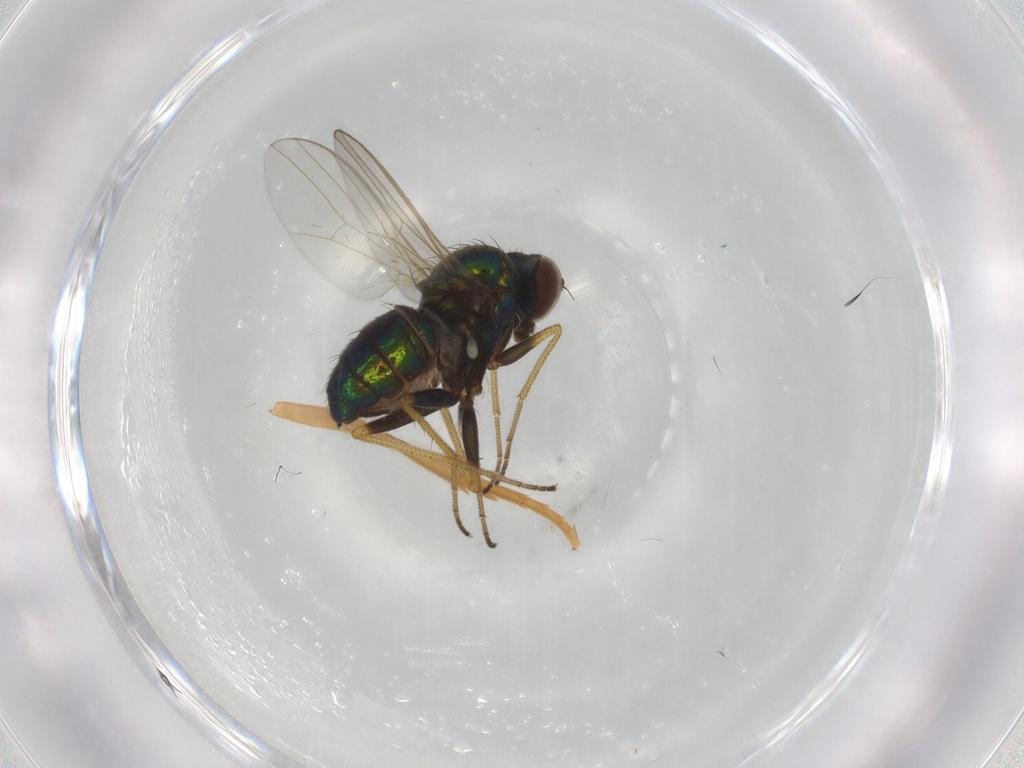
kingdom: Animalia
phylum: Arthropoda
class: Insecta
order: Diptera
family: Dolichopodidae
